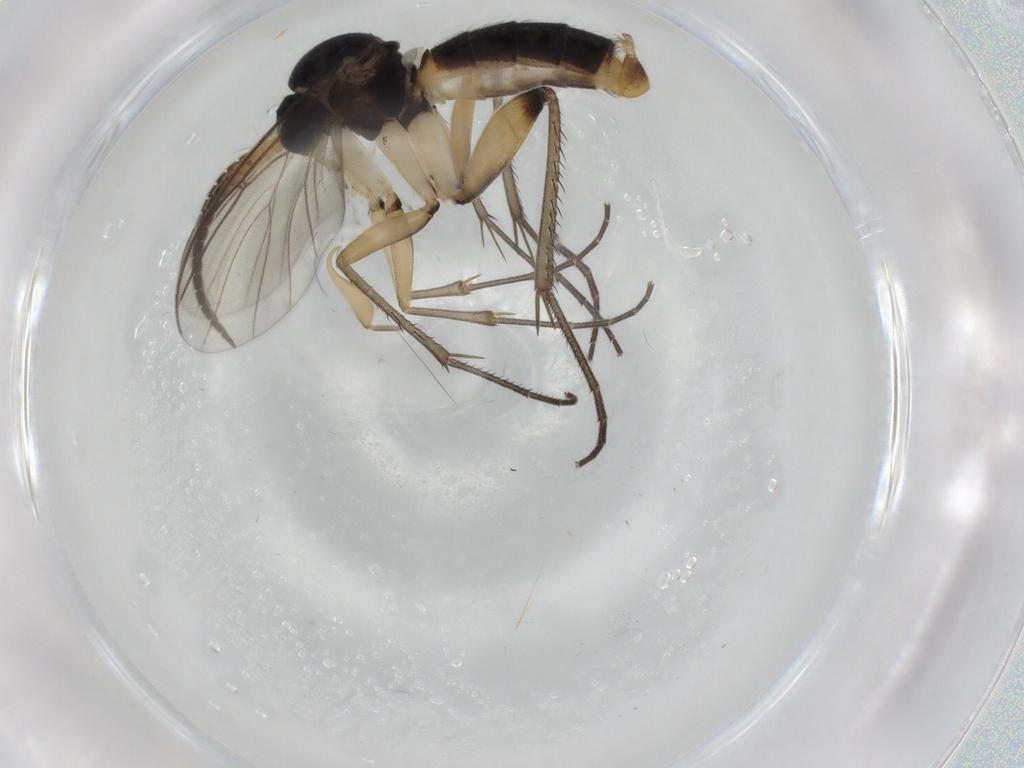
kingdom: Animalia
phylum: Arthropoda
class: Insecta
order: Diptera
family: Mycetophilidae
